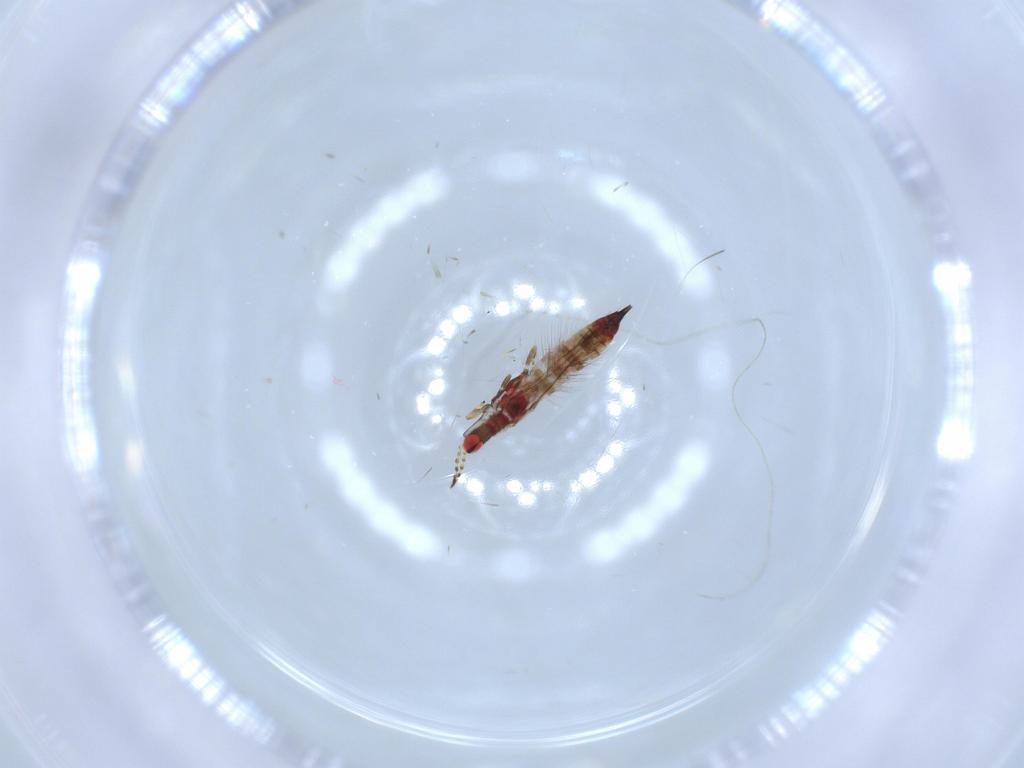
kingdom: Animalia
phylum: Arthropoda
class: Insecta
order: Thysanoptera
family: Phlaeothripidae
